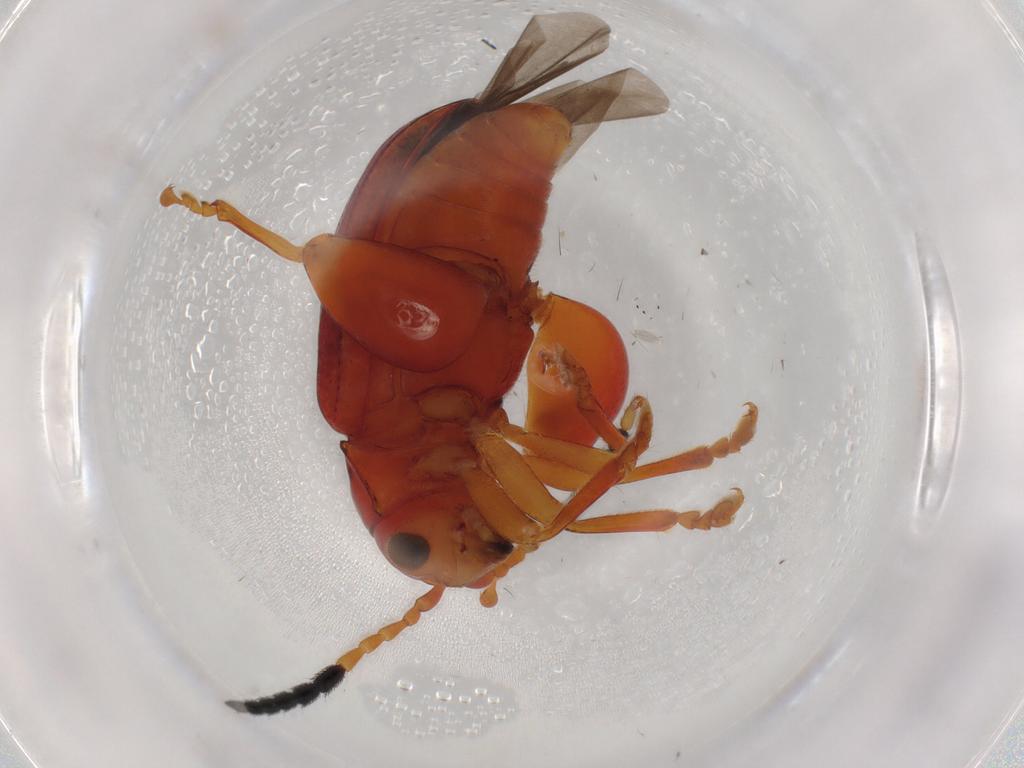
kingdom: Animalia
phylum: Arthropoda
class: Insecta
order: Coleoptera
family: Chrysomelidae
